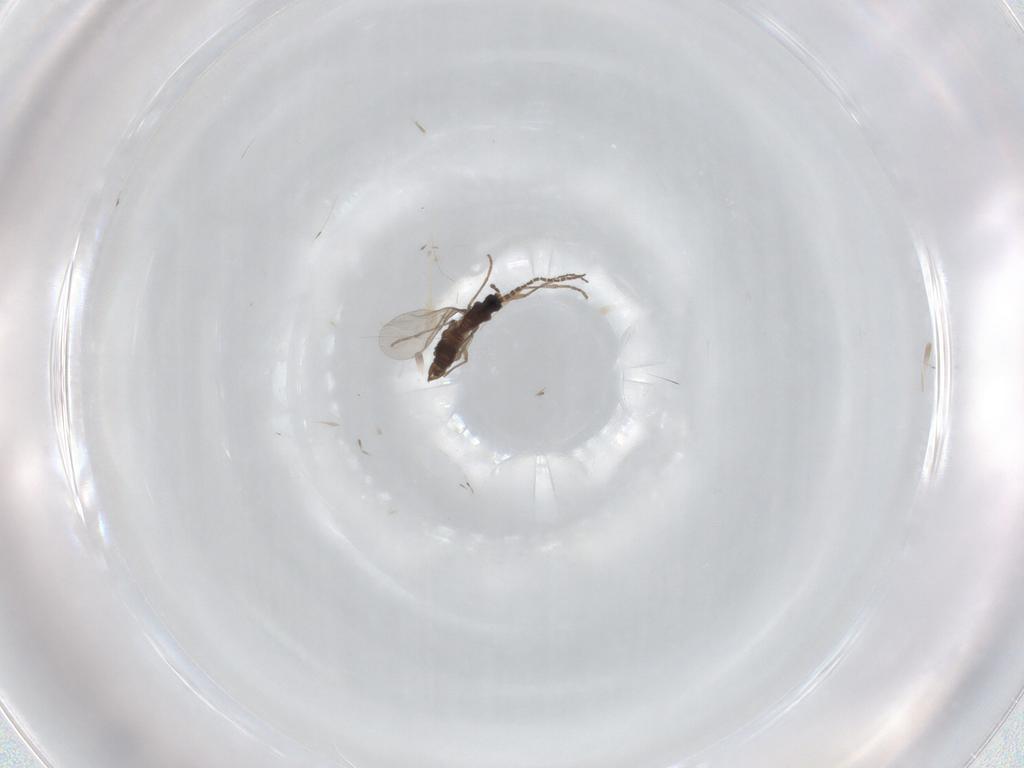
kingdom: Animalia
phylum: Arthropoda
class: Insecta
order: Diptera
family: Sciaridae
